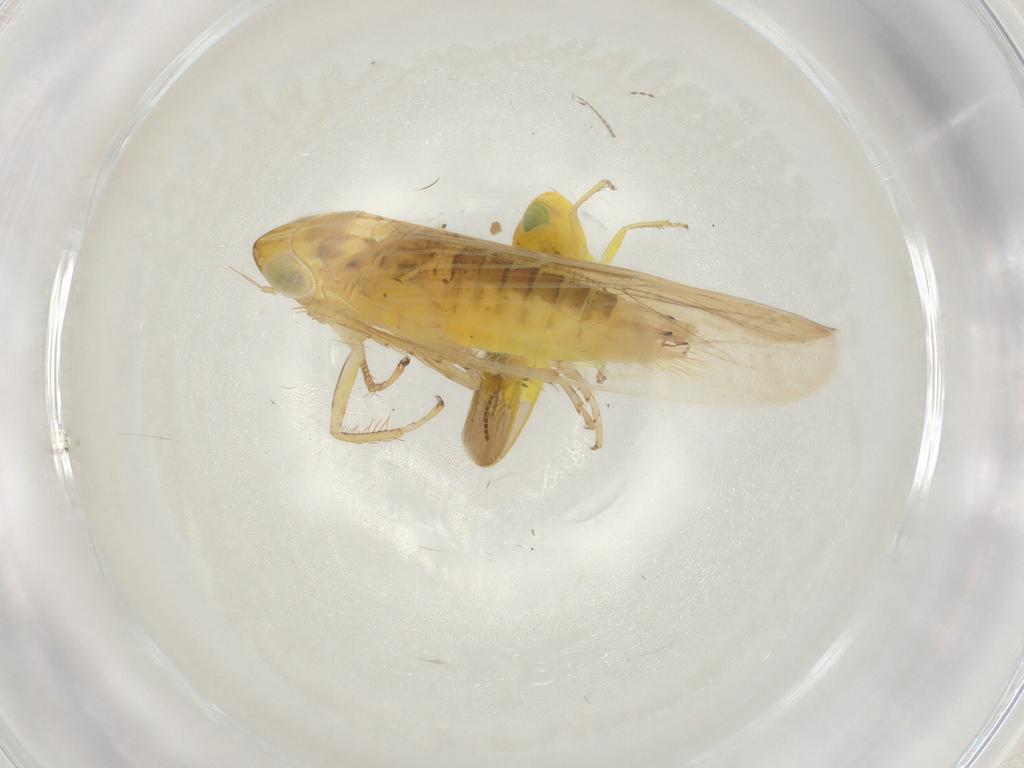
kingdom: Animalia
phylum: Arthropoda
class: Insecta
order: Hemiptera
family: Cicadellidae
